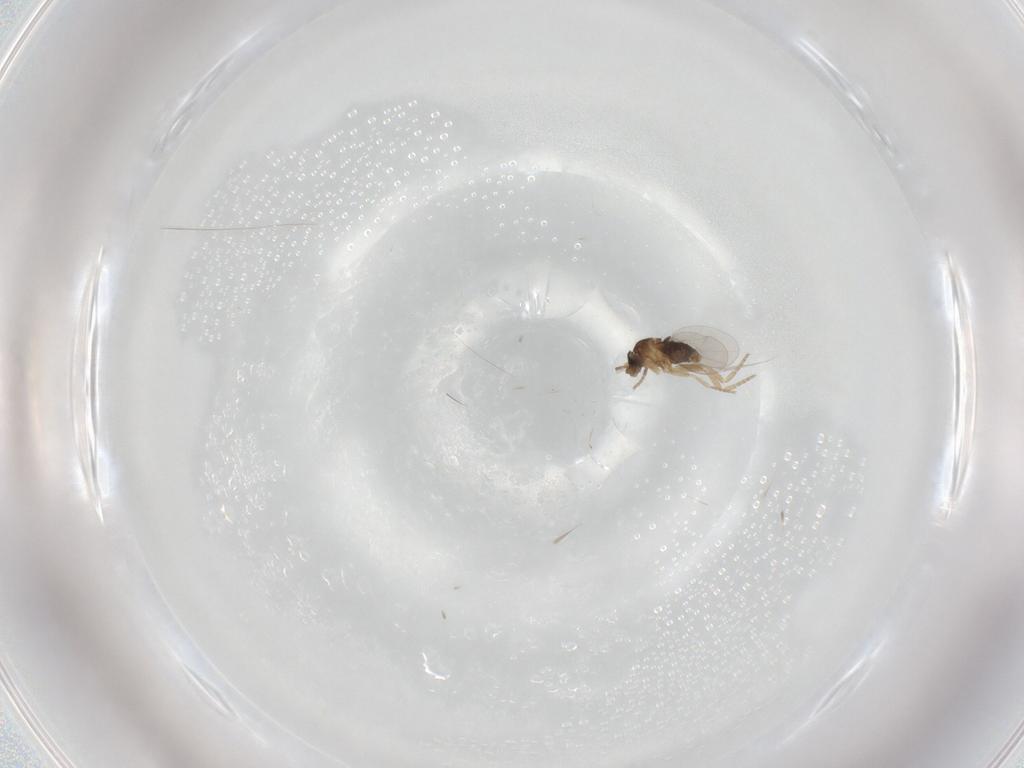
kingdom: Animalia
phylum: Arthropoda
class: Insecta
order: Diptera
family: Phoridae
